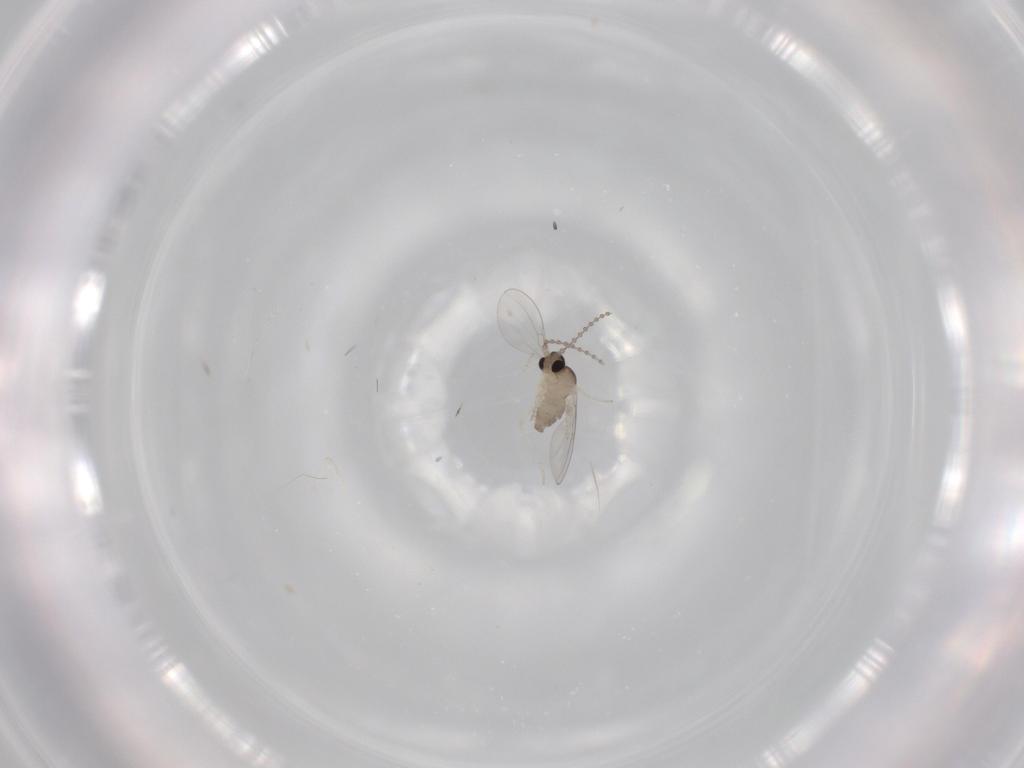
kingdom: Animalia
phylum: Arthropoda
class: Insecta
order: Diptera
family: Cecidomyiidae
